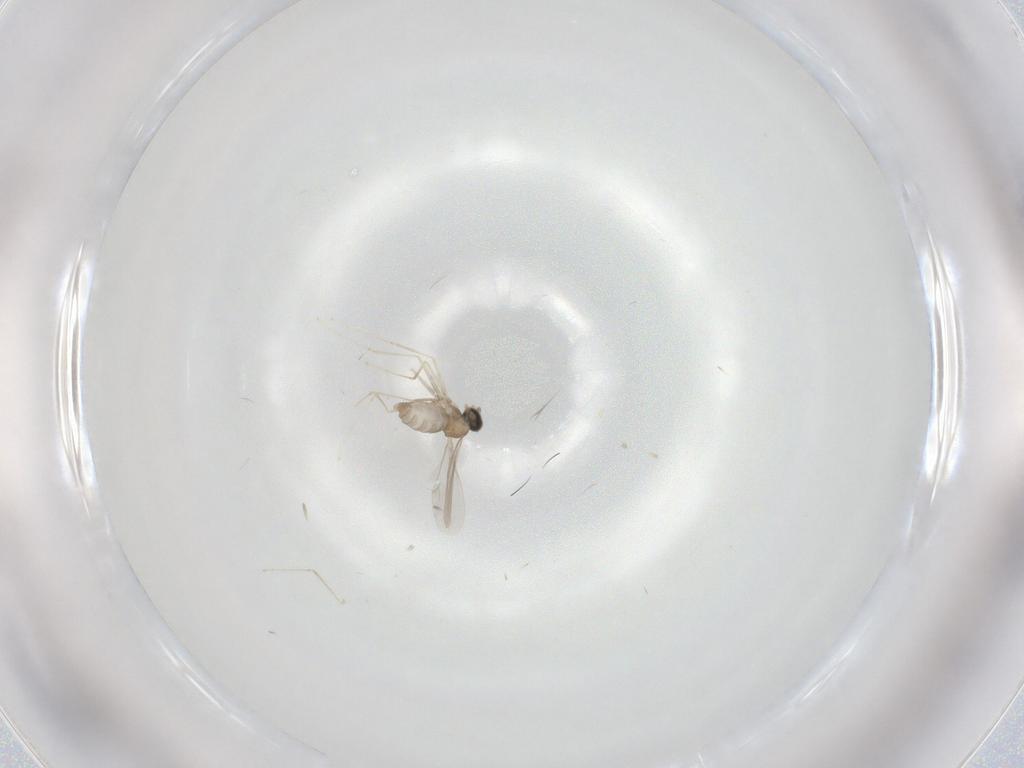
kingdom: Animalia
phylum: Arthropoda
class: Insecta
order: Diptera
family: Cecidomyiidae
